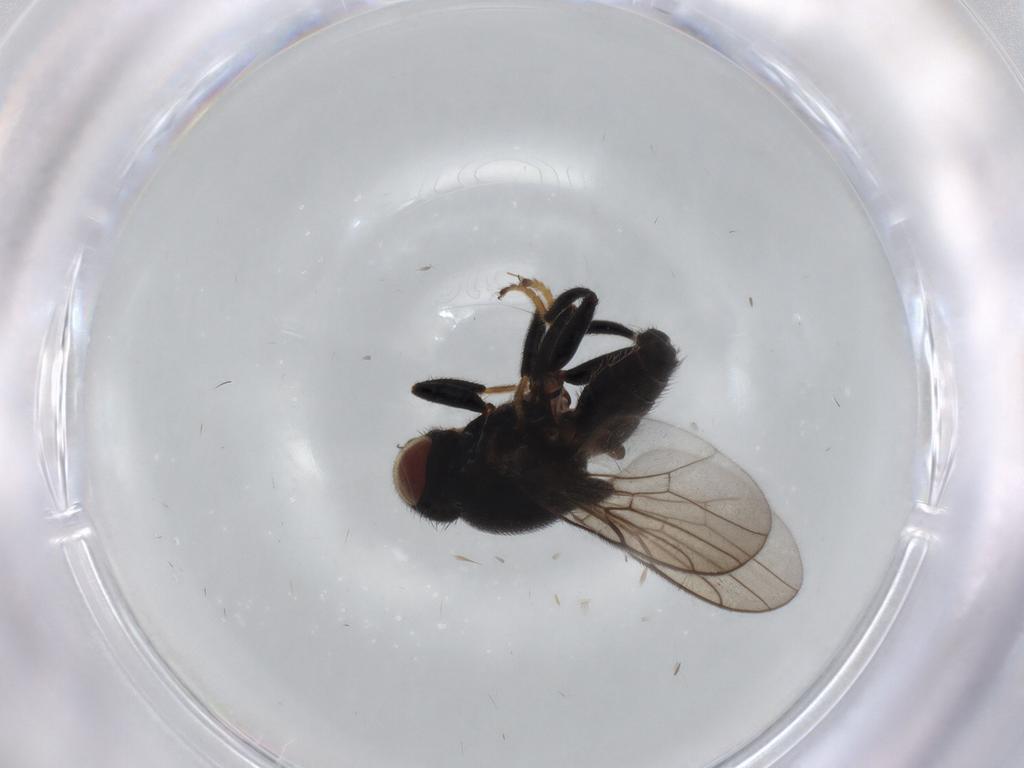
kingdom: Animalia
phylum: Arthropoda
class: Insecta
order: Diptera
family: Chloropidae
